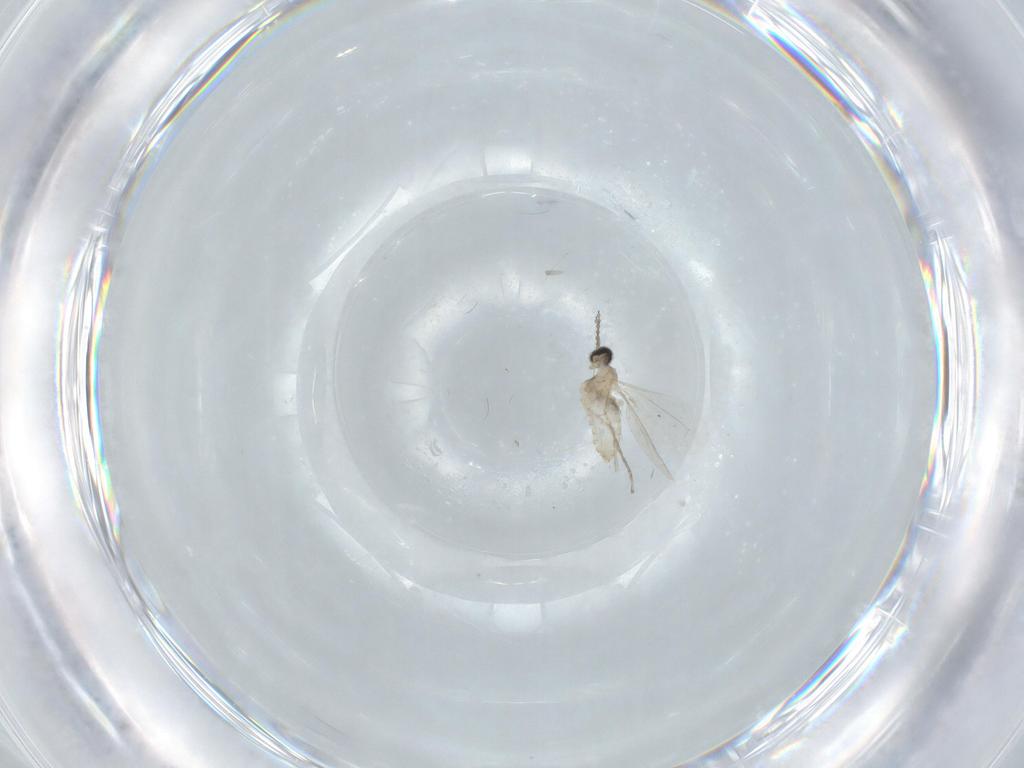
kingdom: Animalia
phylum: Arthropoda
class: Insecta
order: Diptera
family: Cecidomyiidae
